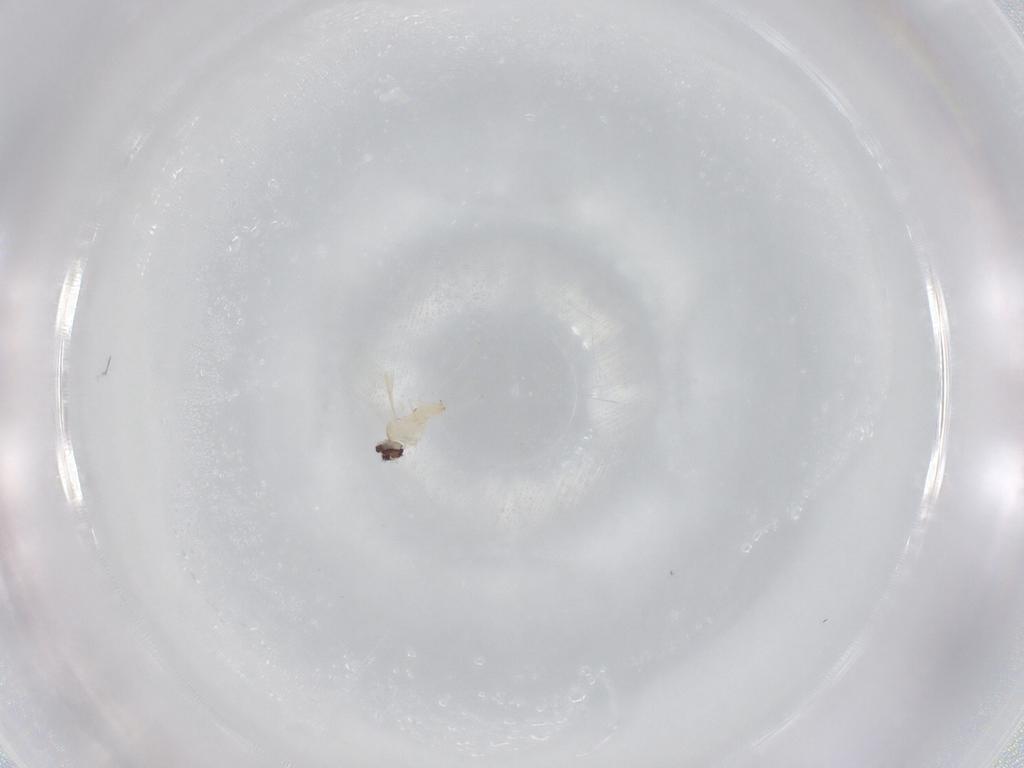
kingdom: Animalia
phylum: Arthropoda
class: Insecta
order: Diptera
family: Cecidomyiidae
